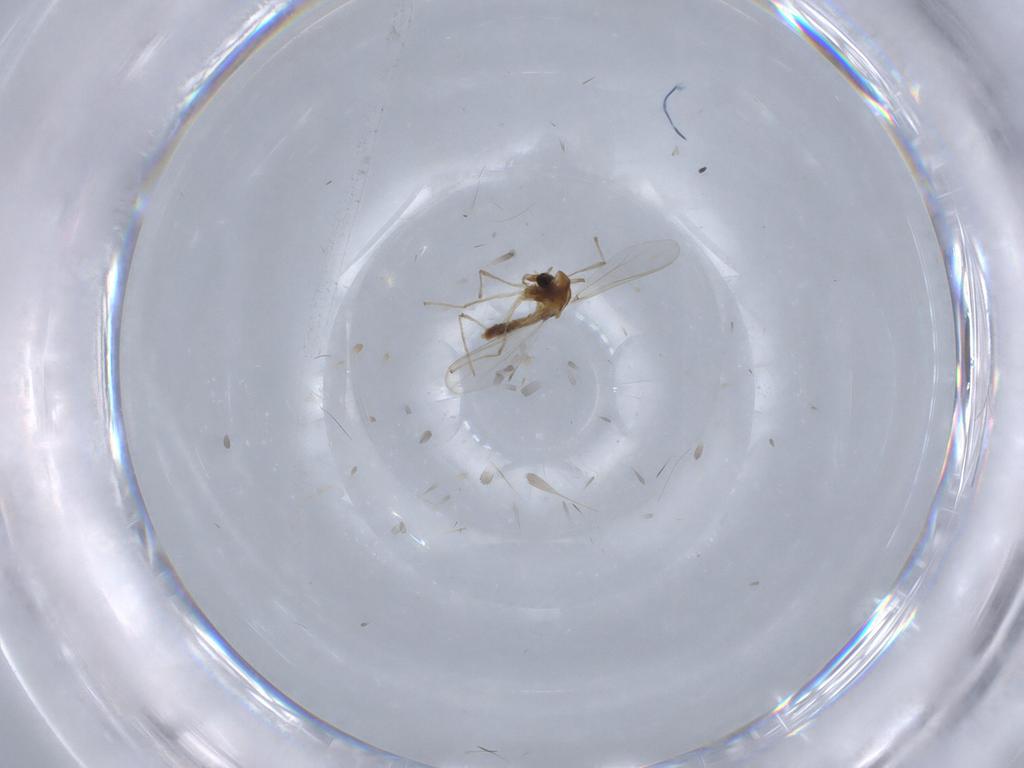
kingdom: Animalia
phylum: Arthropoda
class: Insecta
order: Diptera
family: Chironomidae
